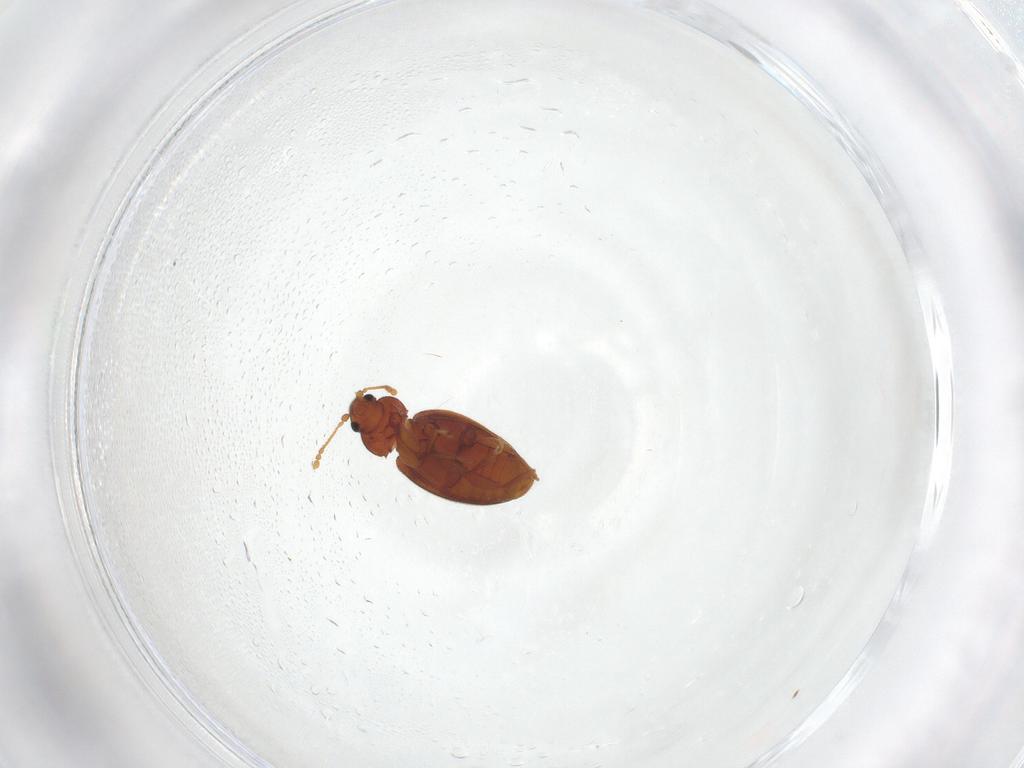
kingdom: Animalia
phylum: Arthropoda
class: Insecta
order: Coleoptera
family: Latridiidae
